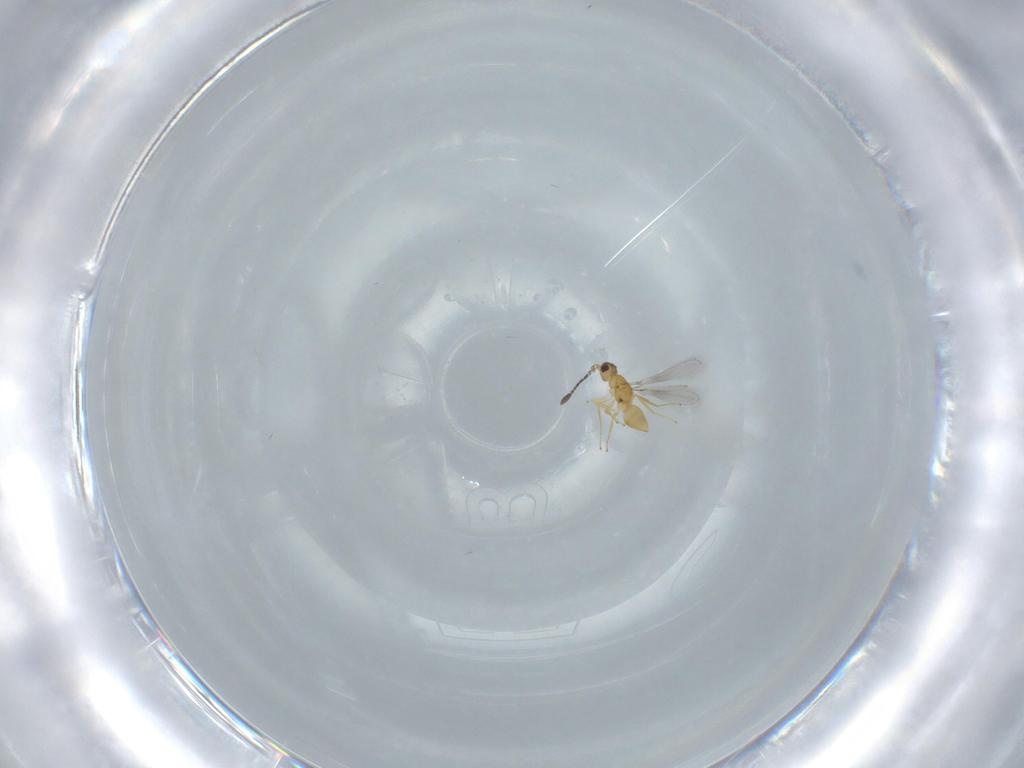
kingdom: Animalia
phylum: Arthropoda
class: Insecta
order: Hymenoptera
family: Mymaridae
